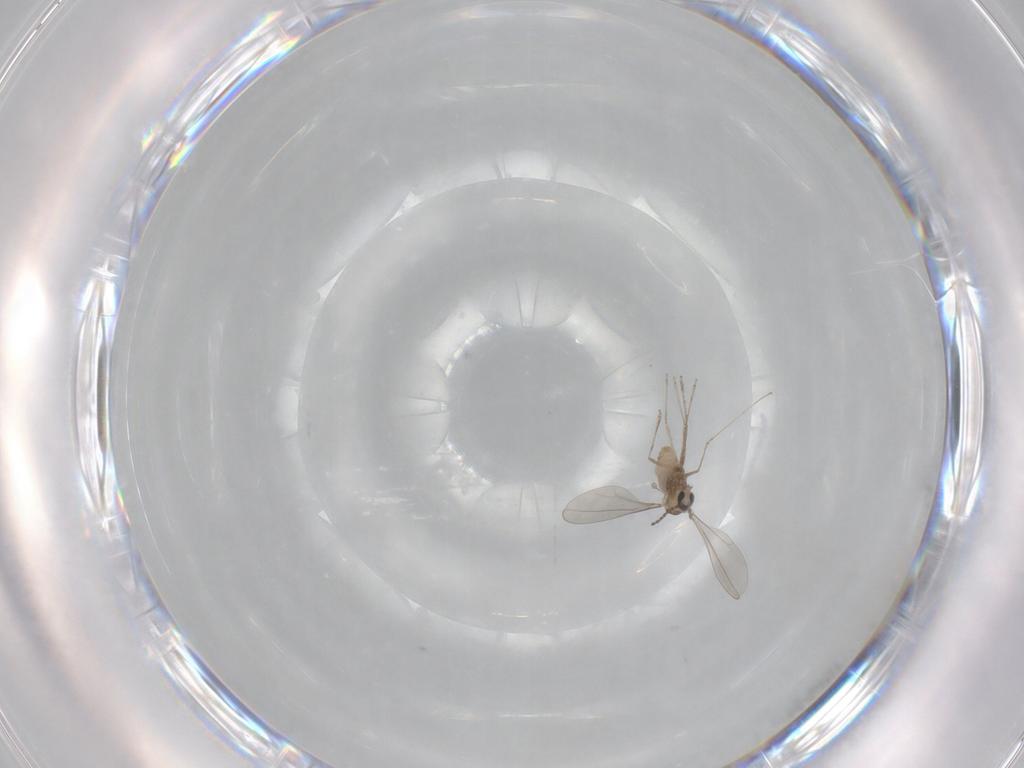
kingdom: Animalia
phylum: Arthropoda
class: Insecta
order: Diptera
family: Cecidomyiidae
